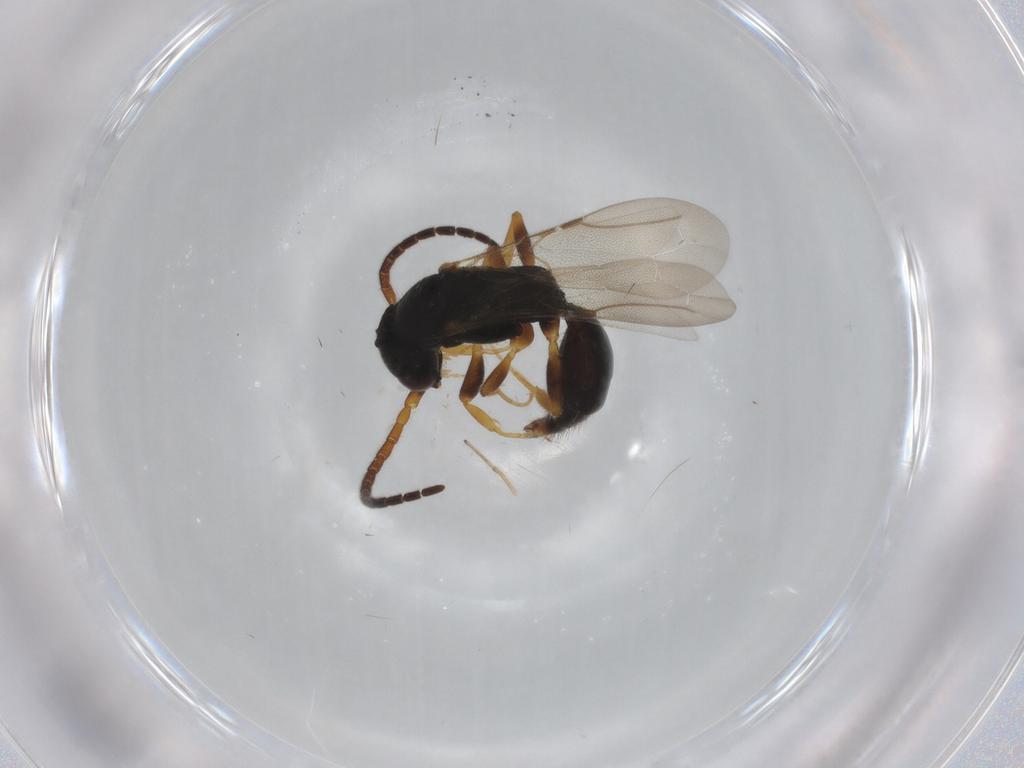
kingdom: Animalia
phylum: Arthropoda
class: Insecta
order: Hymenoptera
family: Bethylidae
